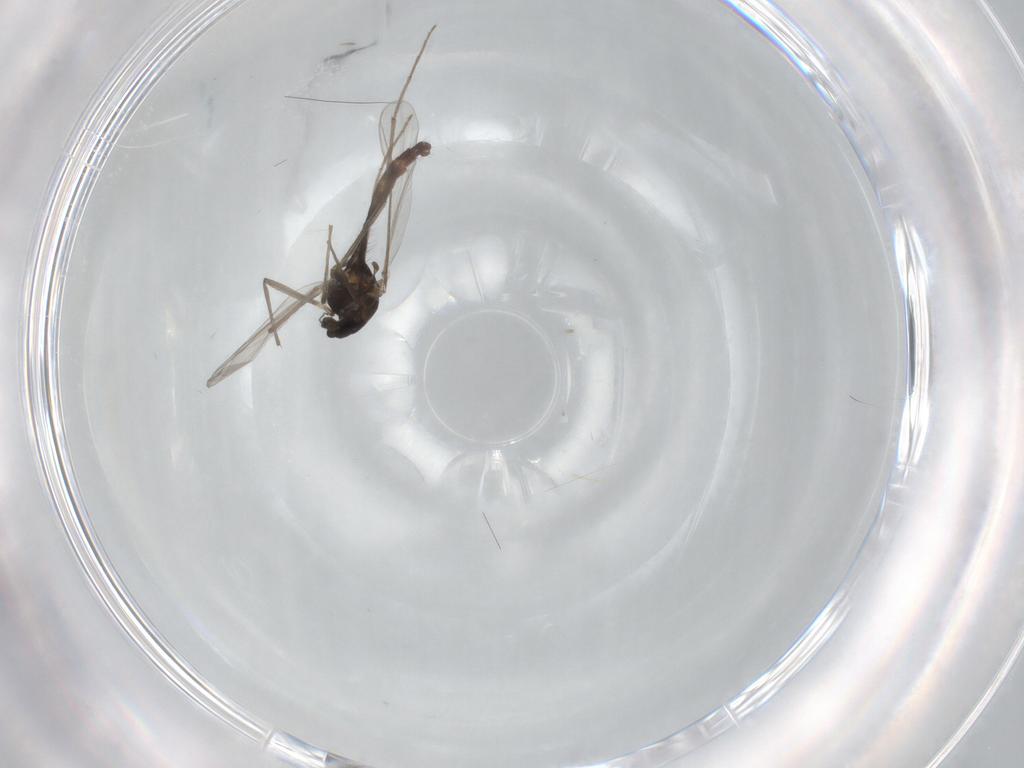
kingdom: Animalia
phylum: Arthropoda
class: Insecta
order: Diptera
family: Chironomidae
